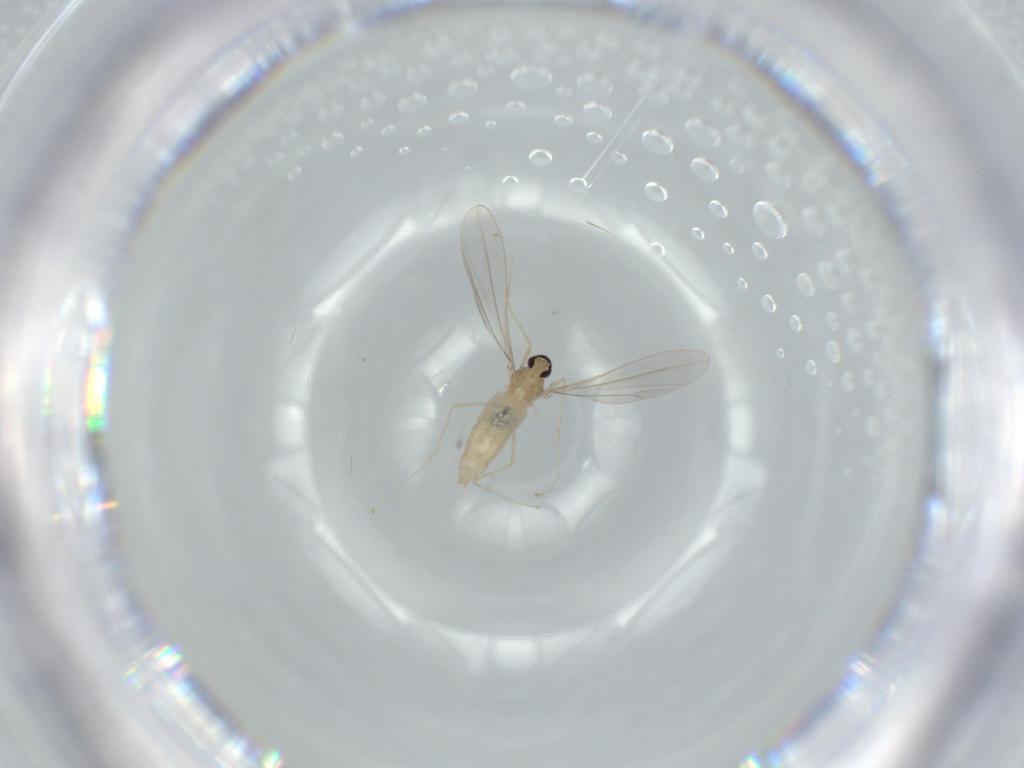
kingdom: Animalia
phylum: Arthropoda
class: Insecta
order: Diptera
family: Cecidomyiidae
